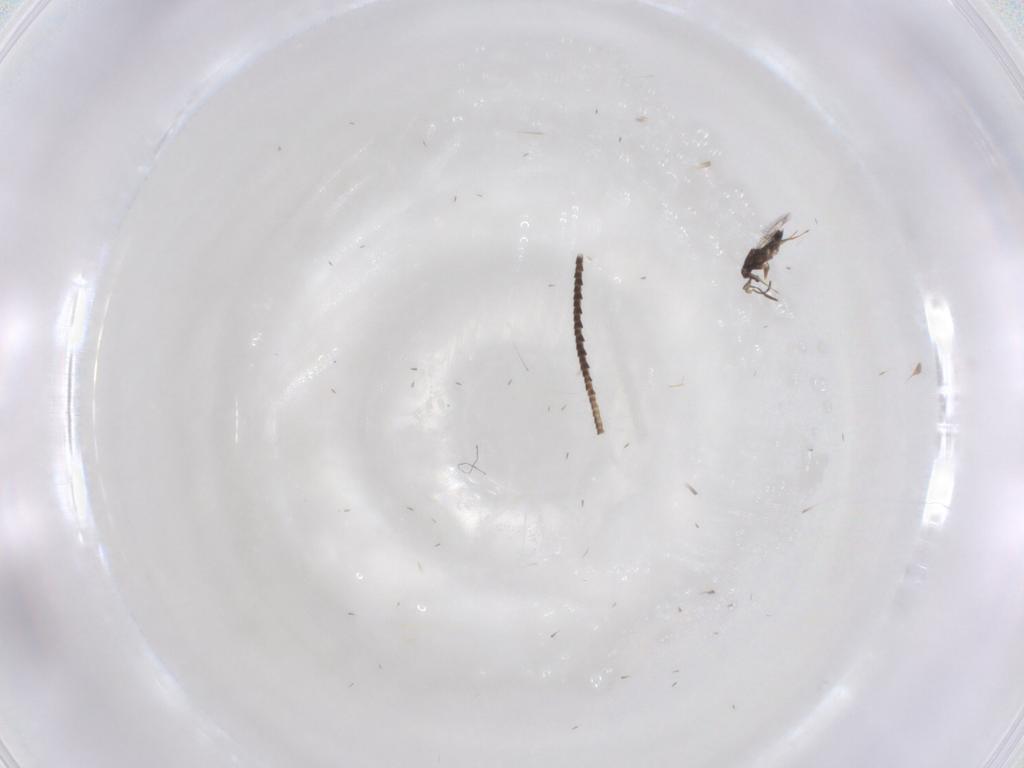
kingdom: Animalia
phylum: Arthropoda
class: Insecta
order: Hymenoptera
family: Mymaridae
